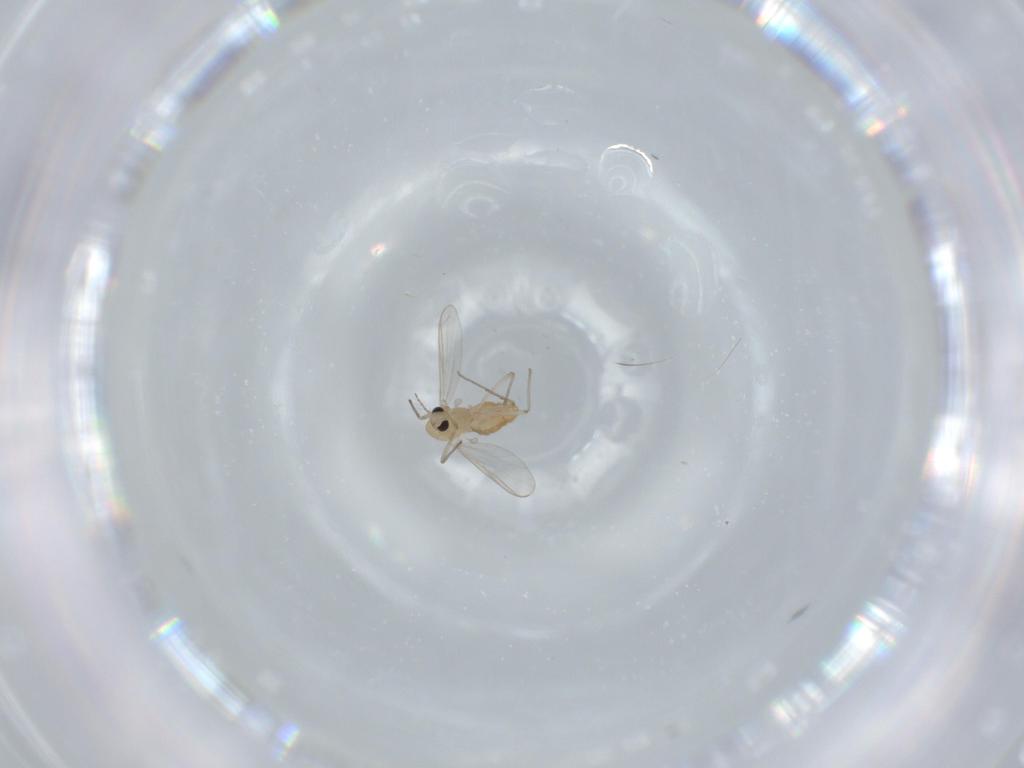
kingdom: Animalia
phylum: Arthropoda
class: Insecta
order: Diptera
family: Chironomidae
